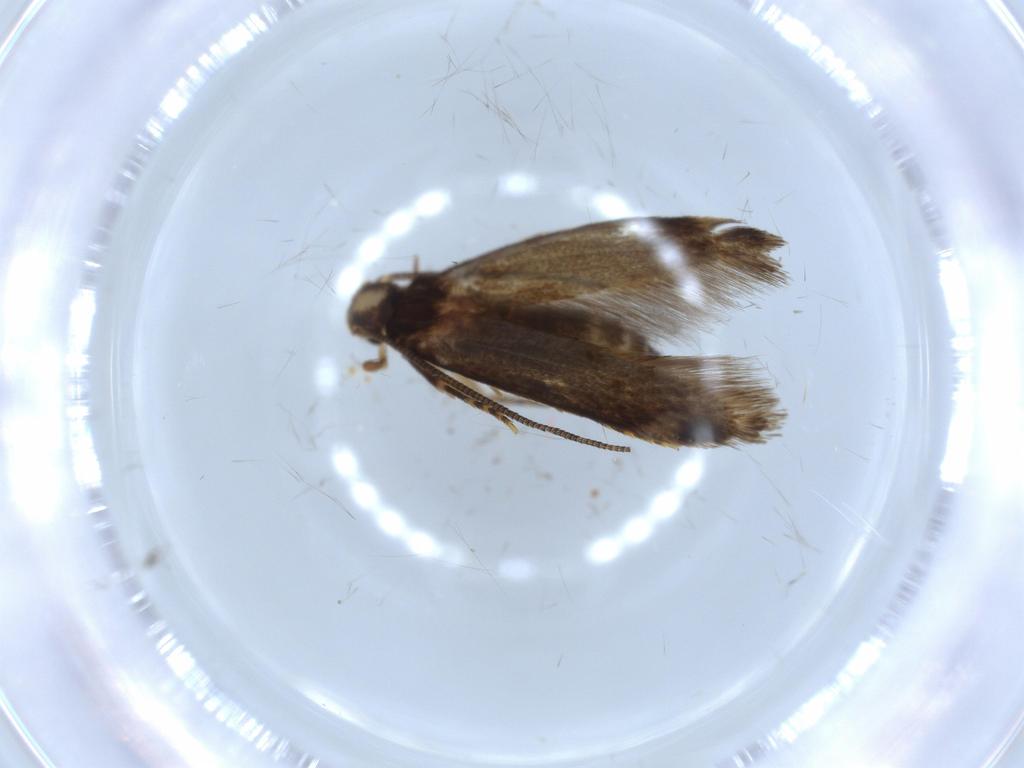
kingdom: Animalia
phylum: Arthropoda
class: Insecta
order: Lepidoptera
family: Tineidae
